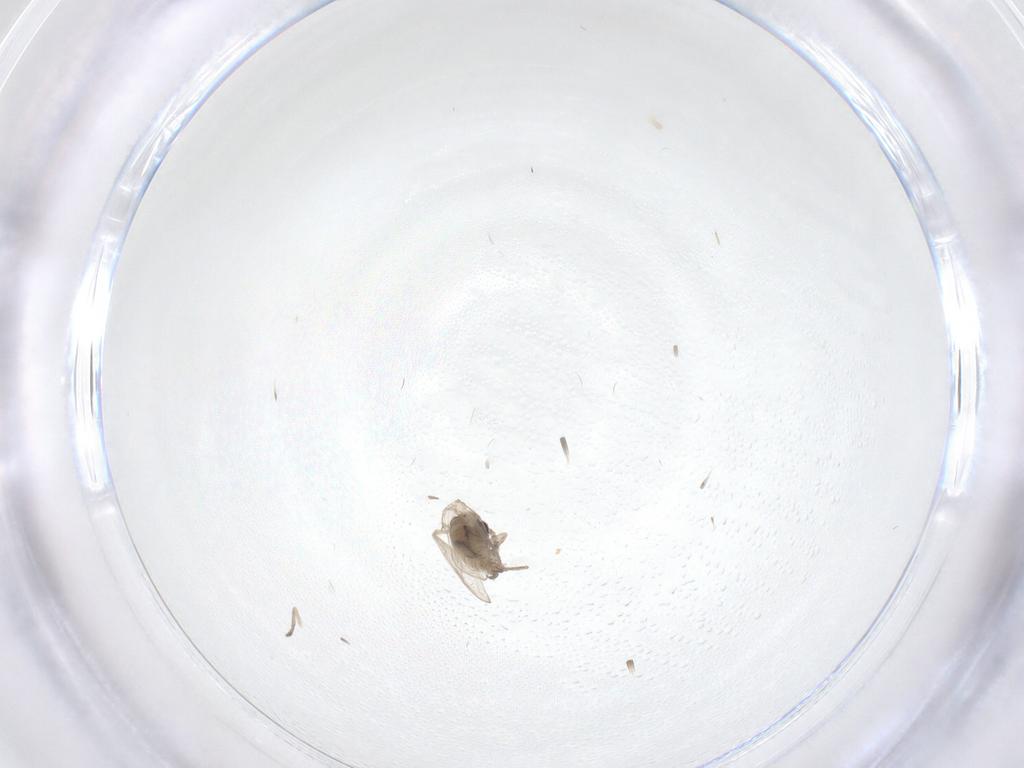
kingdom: Animalia
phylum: Arthropoda
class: Insecta
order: Diptera
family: Psychodidae
